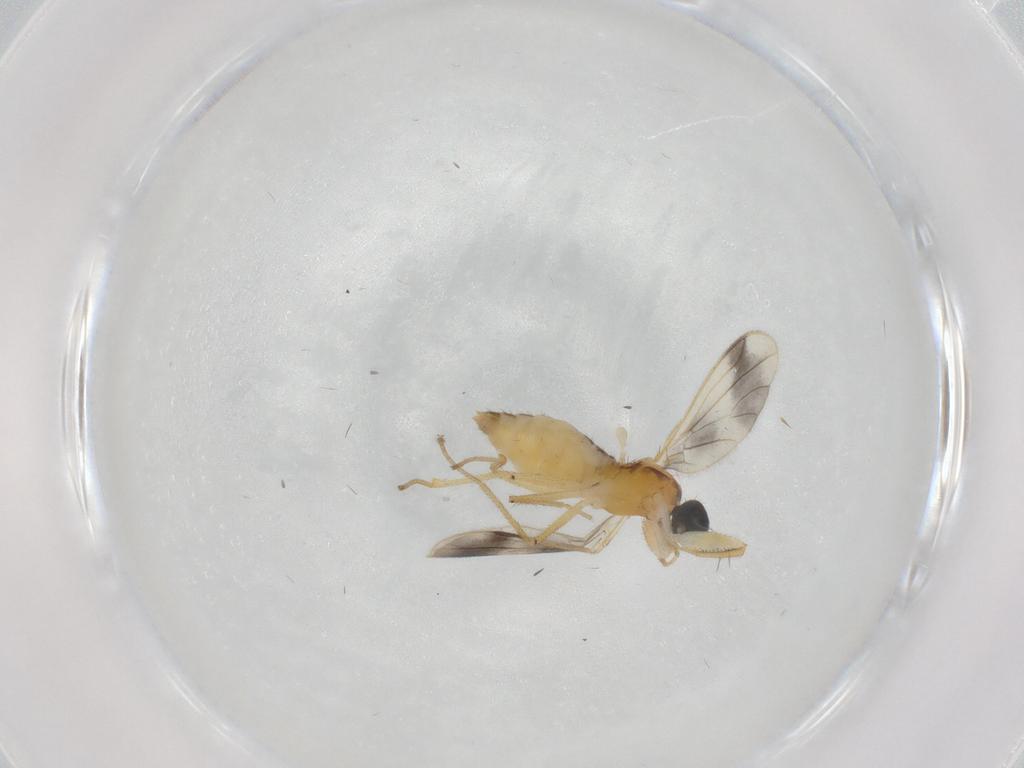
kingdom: Animalia
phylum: Arthropoda
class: Insecta
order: Diptera
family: Empididae
